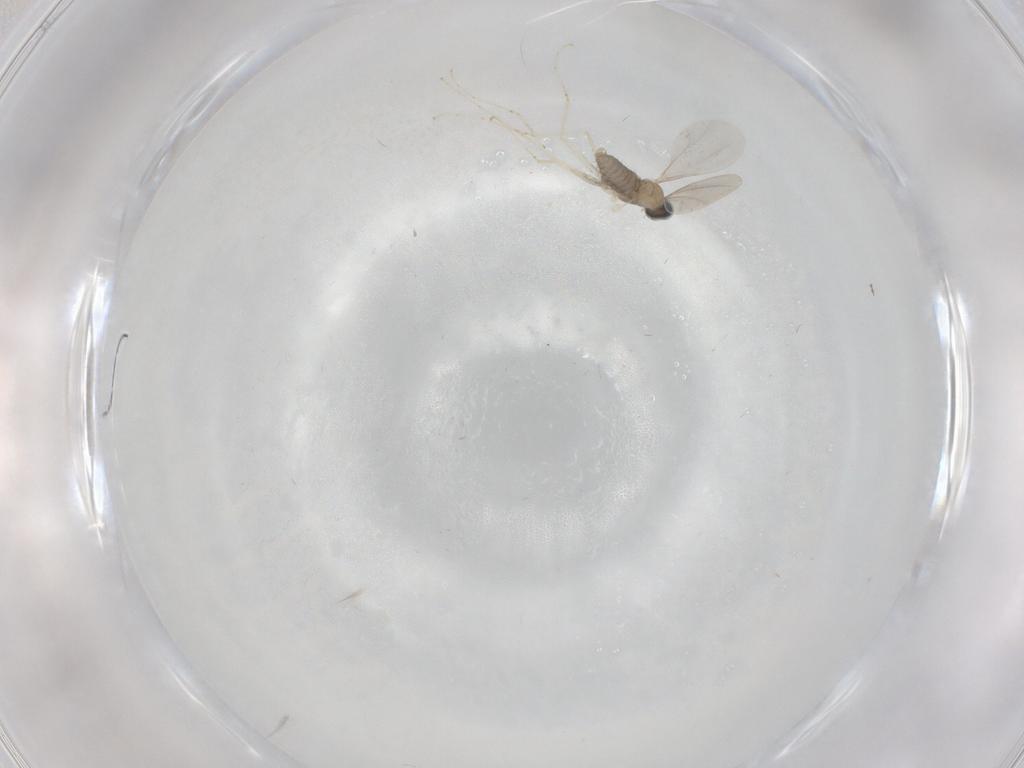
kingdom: Animalia
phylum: Arthropoda
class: Insecta
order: Diptera
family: Cecidomyiidae
